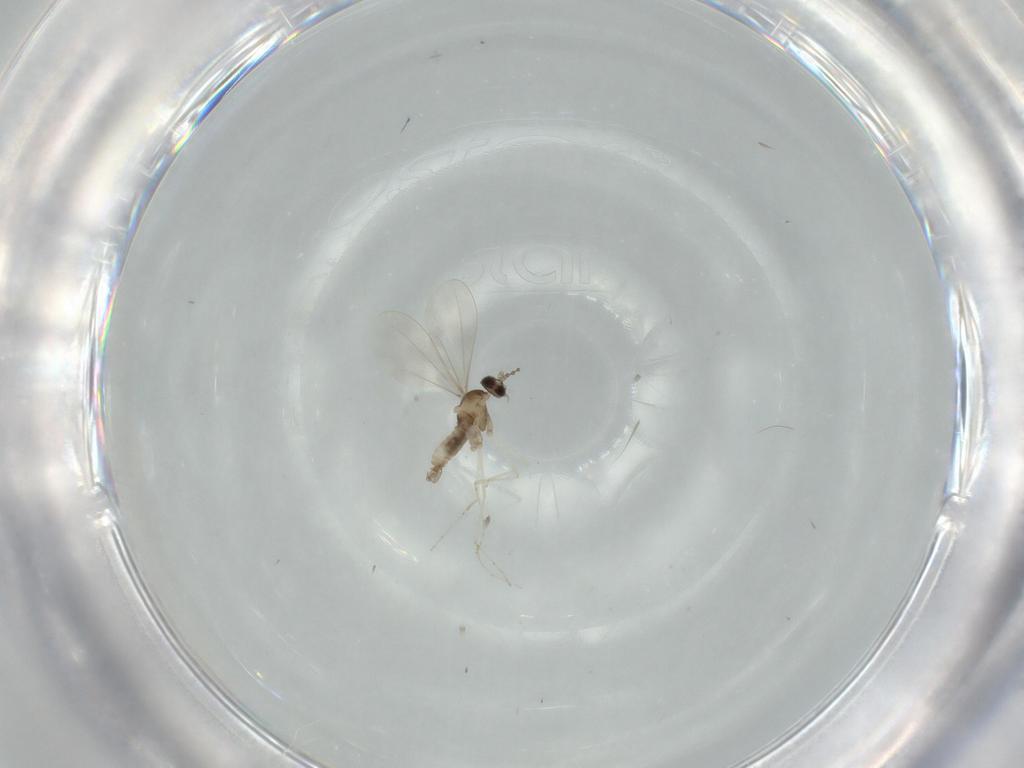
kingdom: Animalia
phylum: Arthropoda
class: Insecta
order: Diptera
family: Cecidomyiidae
